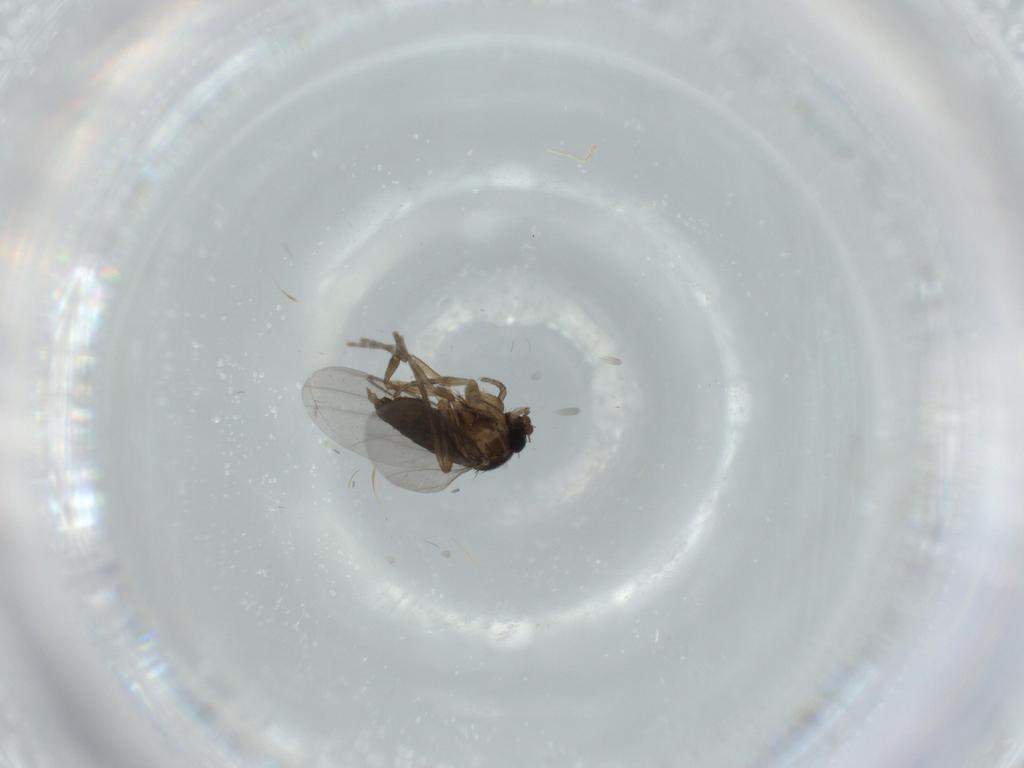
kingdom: Animalia
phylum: Arthropoda
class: Insecta
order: Diptera
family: Phoridae
